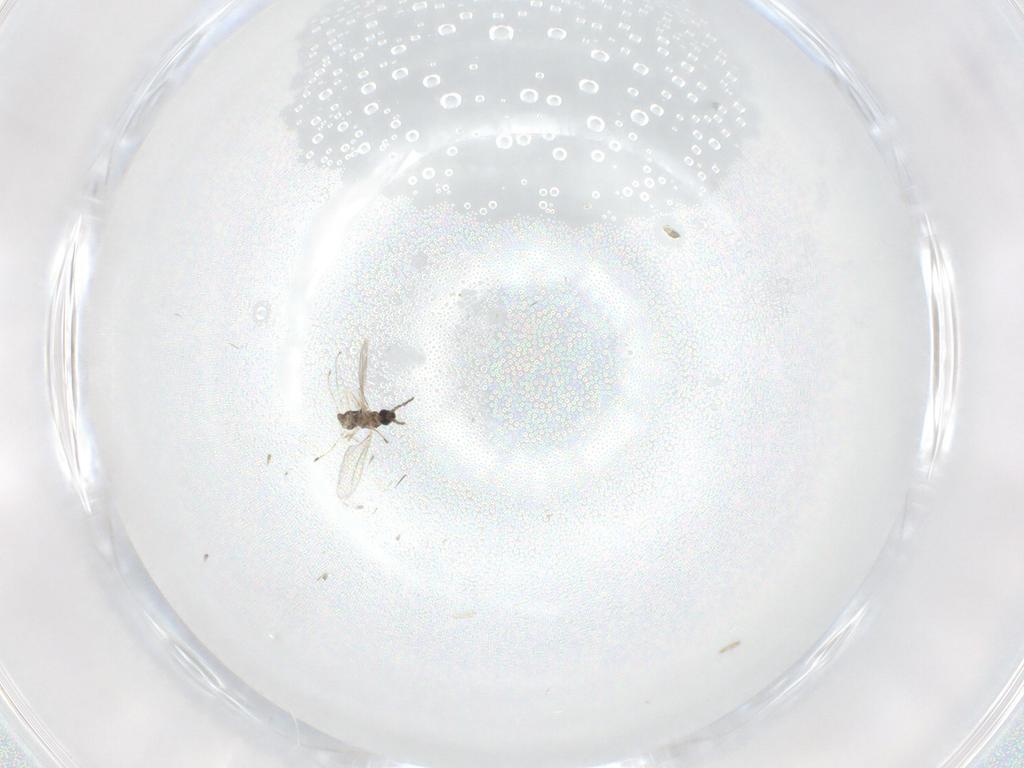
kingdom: Animalia
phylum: Arthropoda
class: Insecta
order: Diptera
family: Cecidomyiidae
